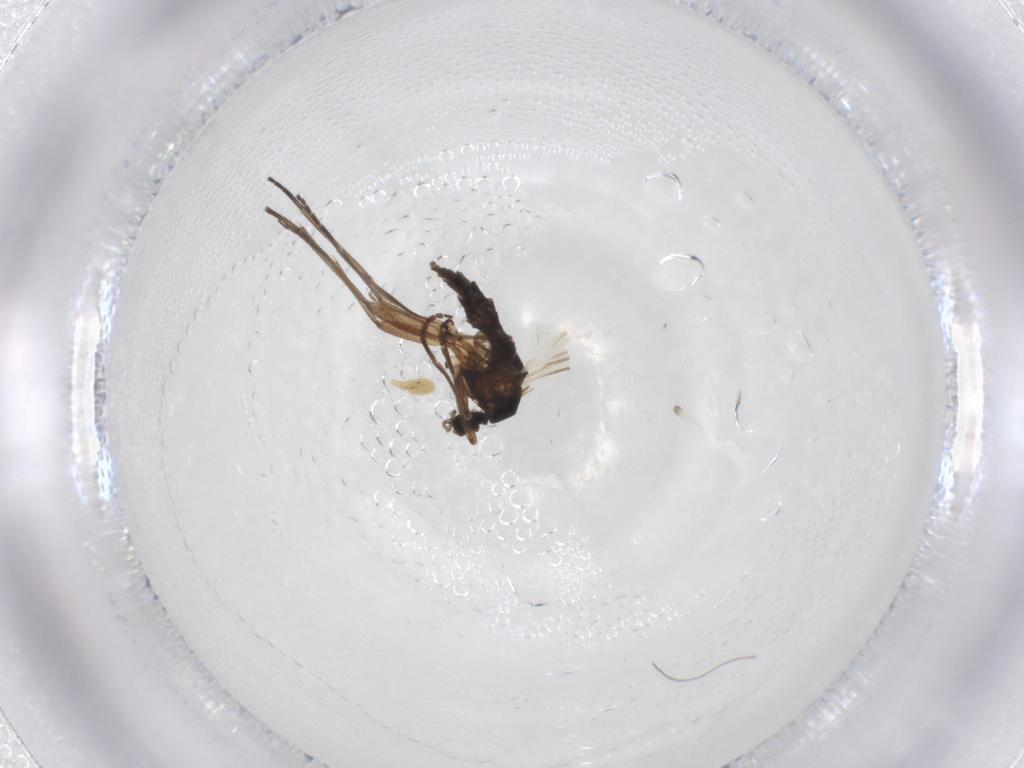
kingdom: Animalia
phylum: Arthropoda
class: Insecta
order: Diptera
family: Chironomidae
